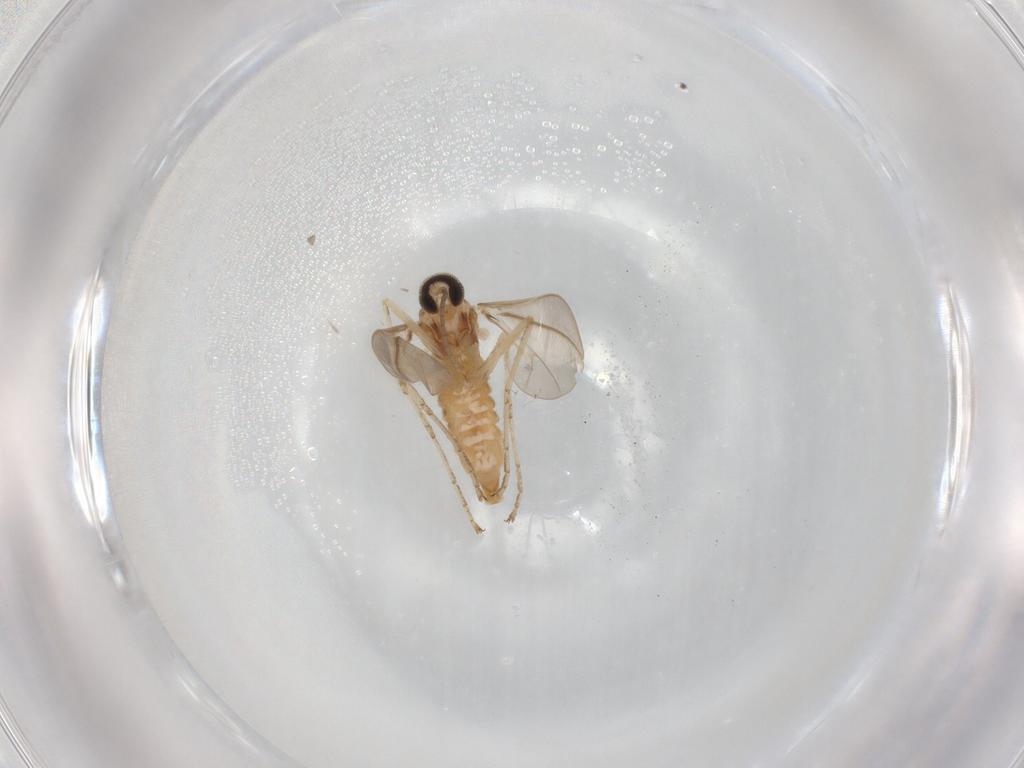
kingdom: Animalia
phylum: Arthropoda
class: Insecta
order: Diptera
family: Cecidomyiidae
